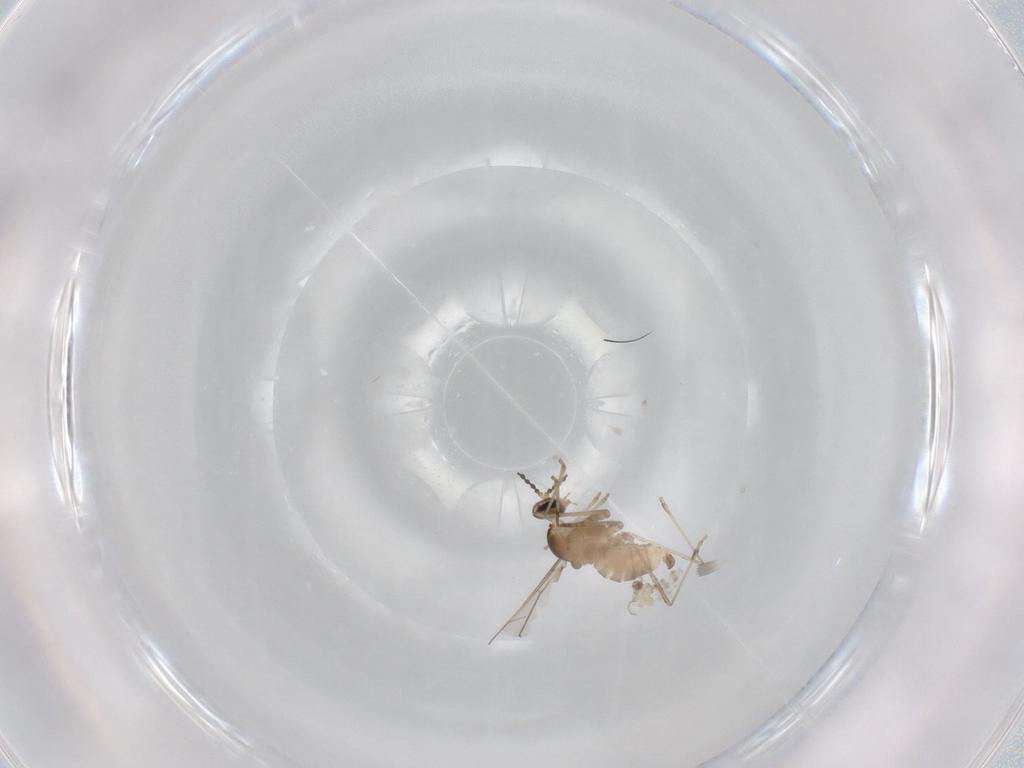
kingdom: Animalia
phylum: Arthropoda
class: Insecta
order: Diptera
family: Cecidomyiidae
